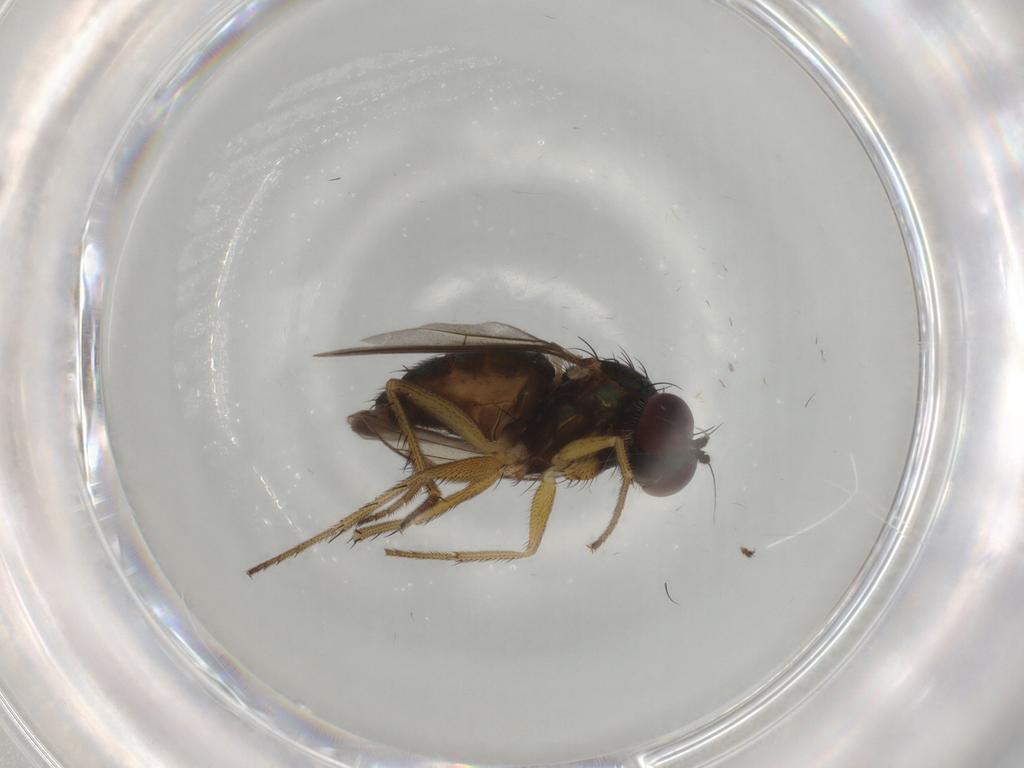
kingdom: Animalia
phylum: Arthropoda
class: Insecta
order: Diptera
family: Dolichopodidae
